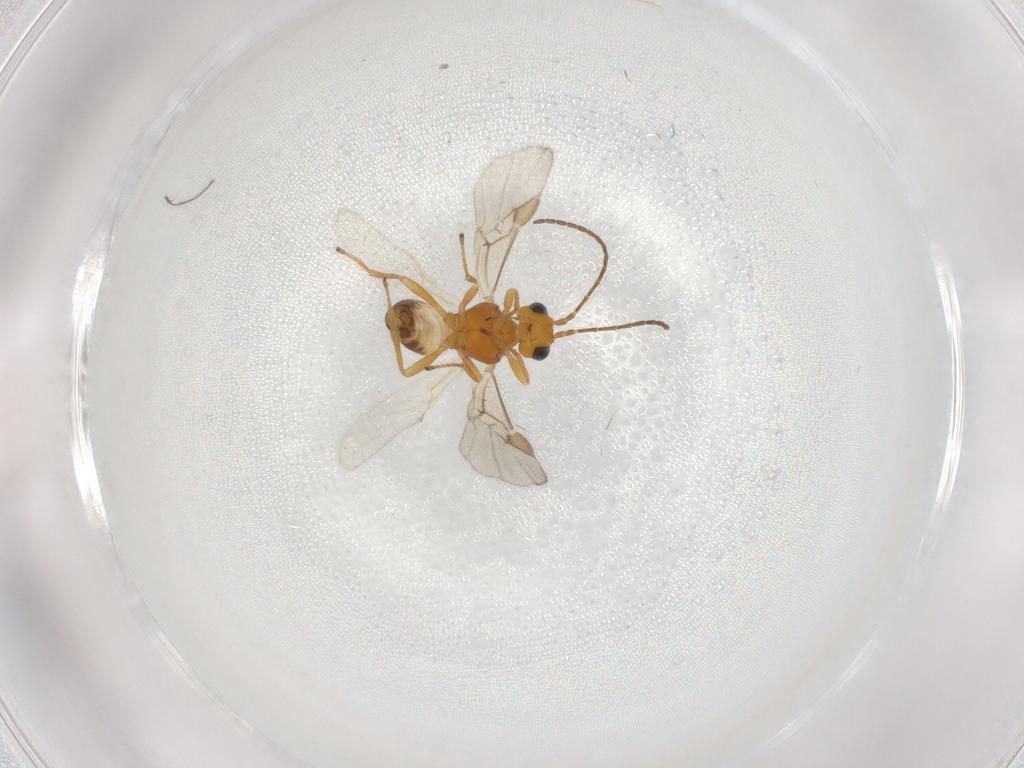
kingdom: Animalia
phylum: Arthropoda
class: Insecta
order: Hymenoptera
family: Braconidae
